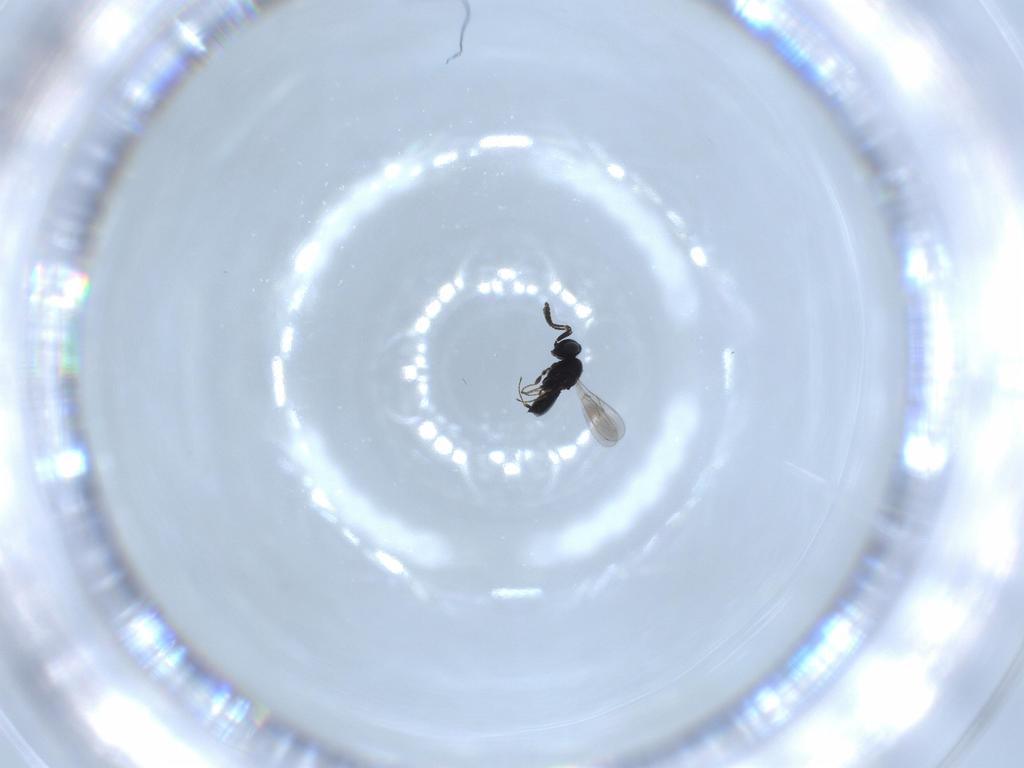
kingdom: Animalia
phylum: Arthropoda
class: Insecta
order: Hymenoptera
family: Scelionidae
